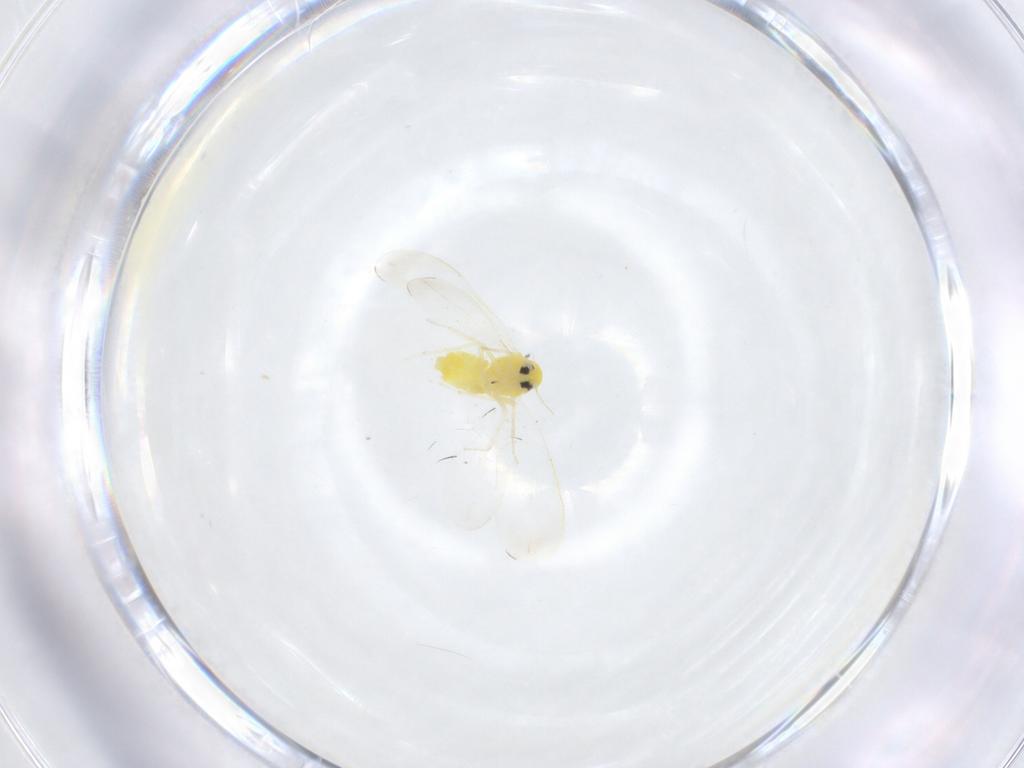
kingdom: Animalia
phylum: Arthropoda
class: Insecta
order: Hemiptera
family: Aleyrodidae
